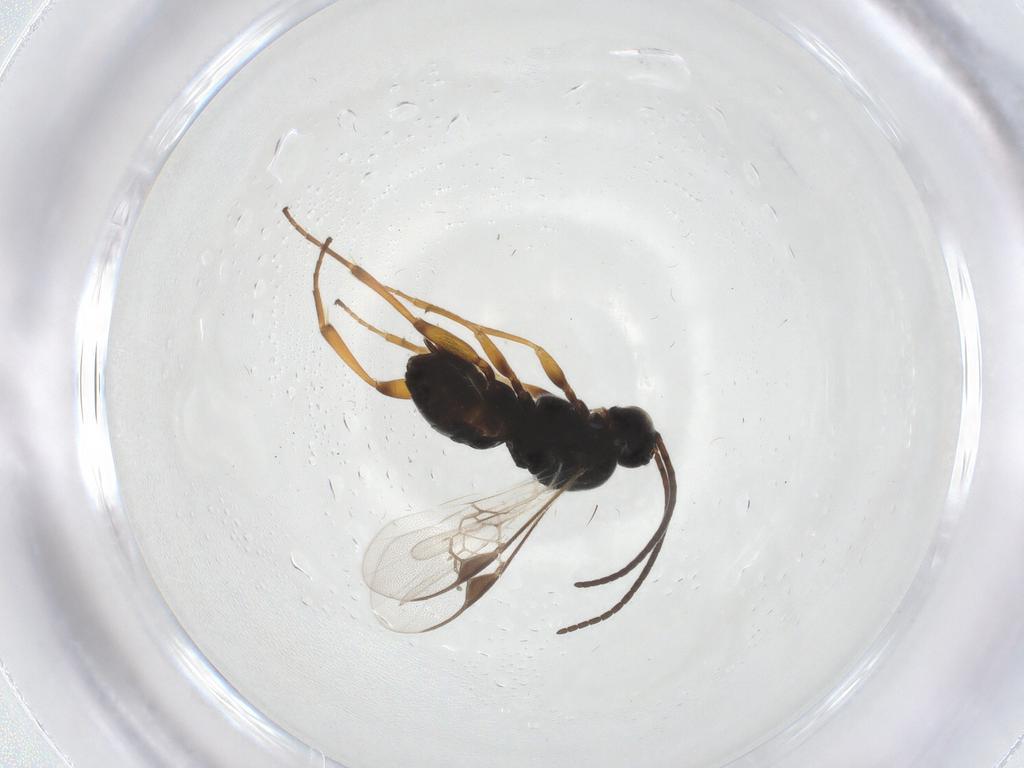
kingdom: Animalia
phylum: Arthropoda
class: Insecta
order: Hymenoptera
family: Braconidae
